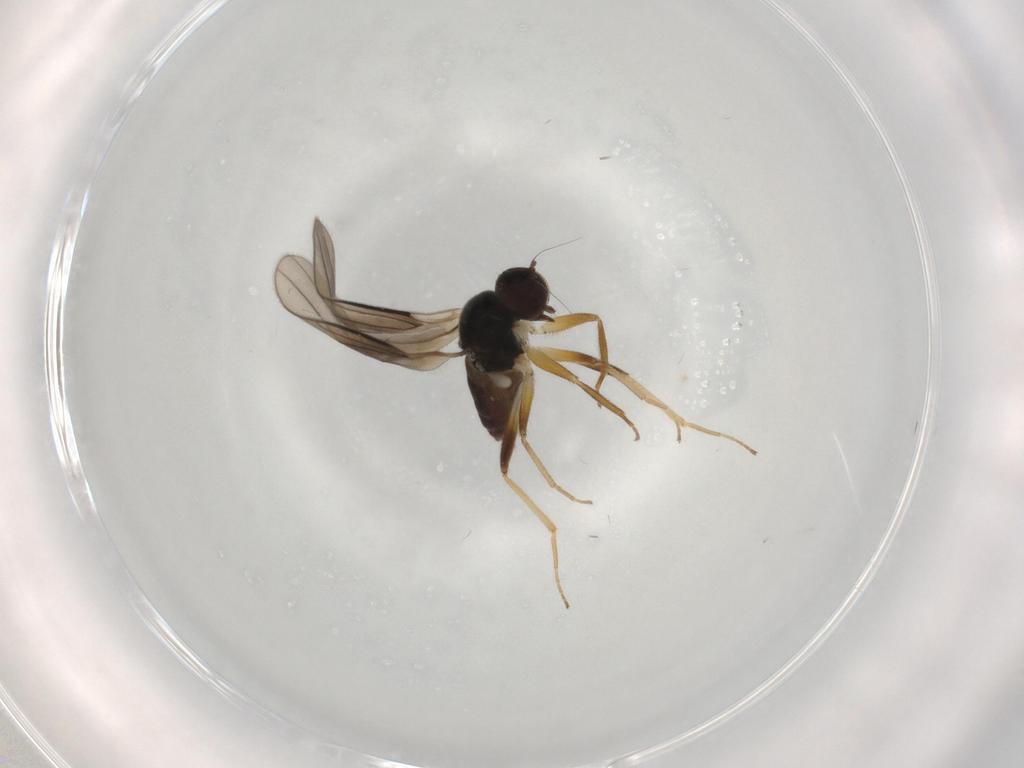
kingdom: Animalia
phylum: Arthropoda
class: Insecta
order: Diptera
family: Hybotidae
